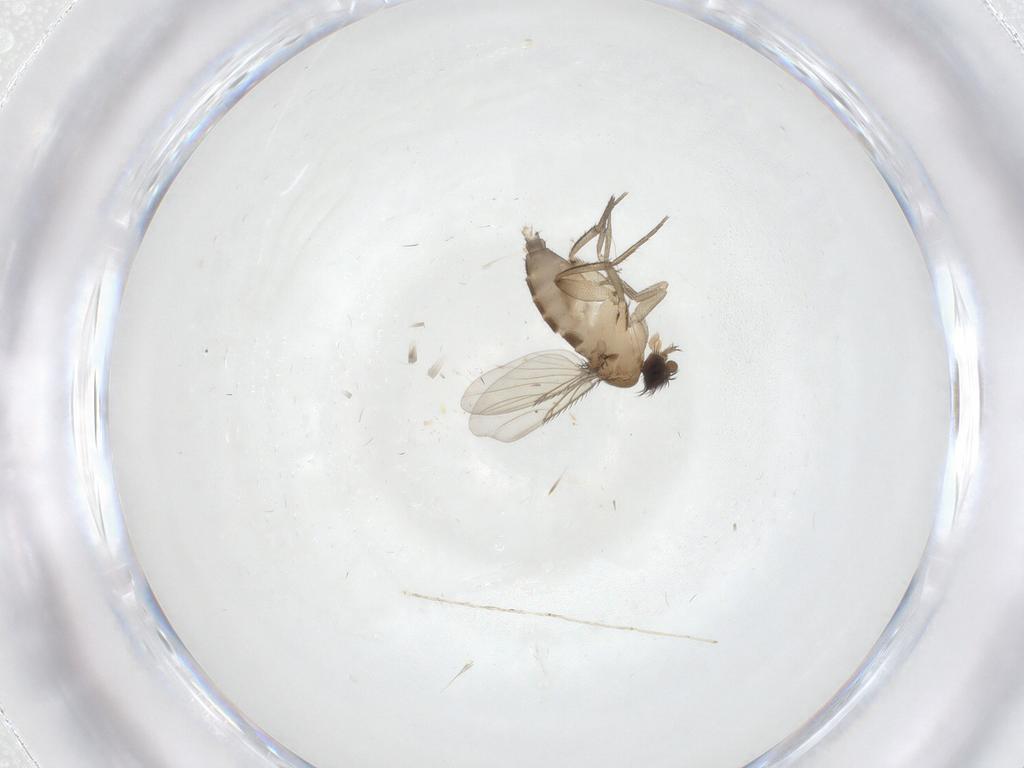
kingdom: Animalia
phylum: Arthropoda
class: Insecta
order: Diptera
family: Phoridae
